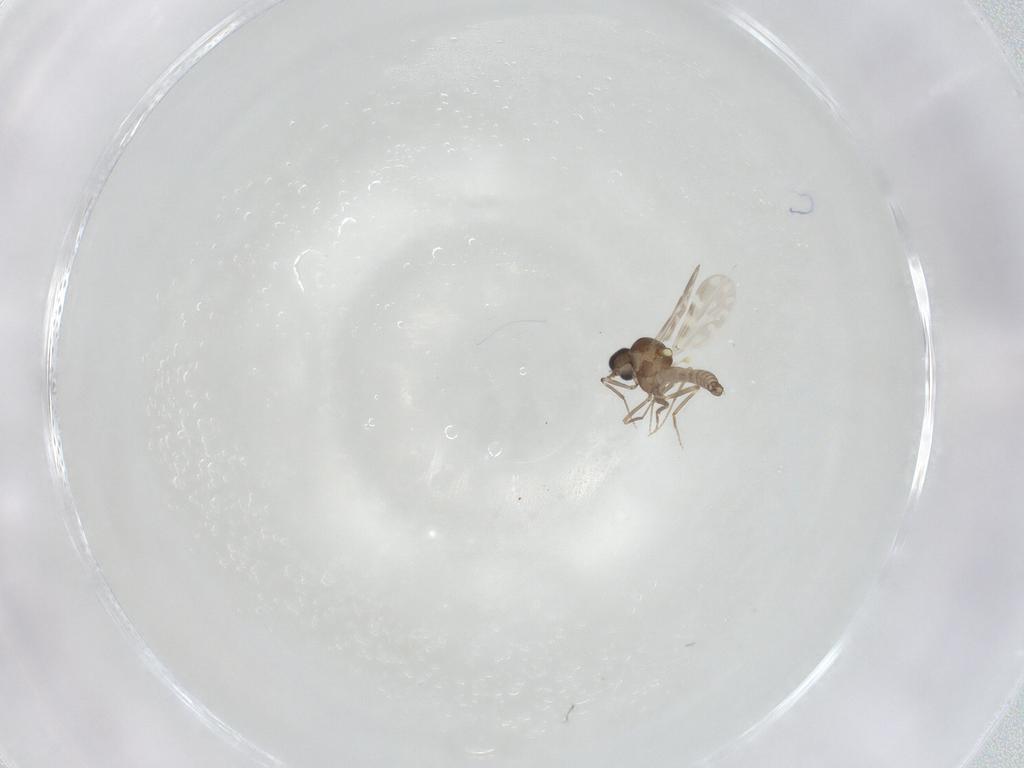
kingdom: Animalia
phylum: Arthropoda
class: Insecta
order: Diptera
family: Ceratopogonidae
